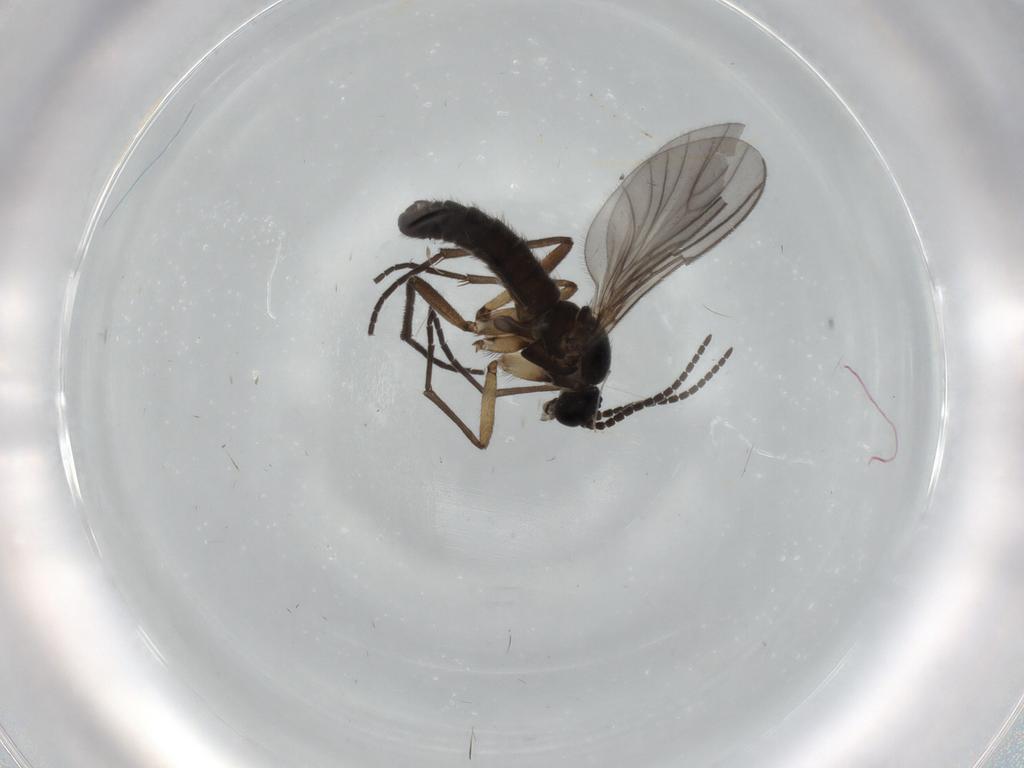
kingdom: Animalia
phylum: Arthropoda
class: Insecta
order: Diptera
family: Sciaridae
